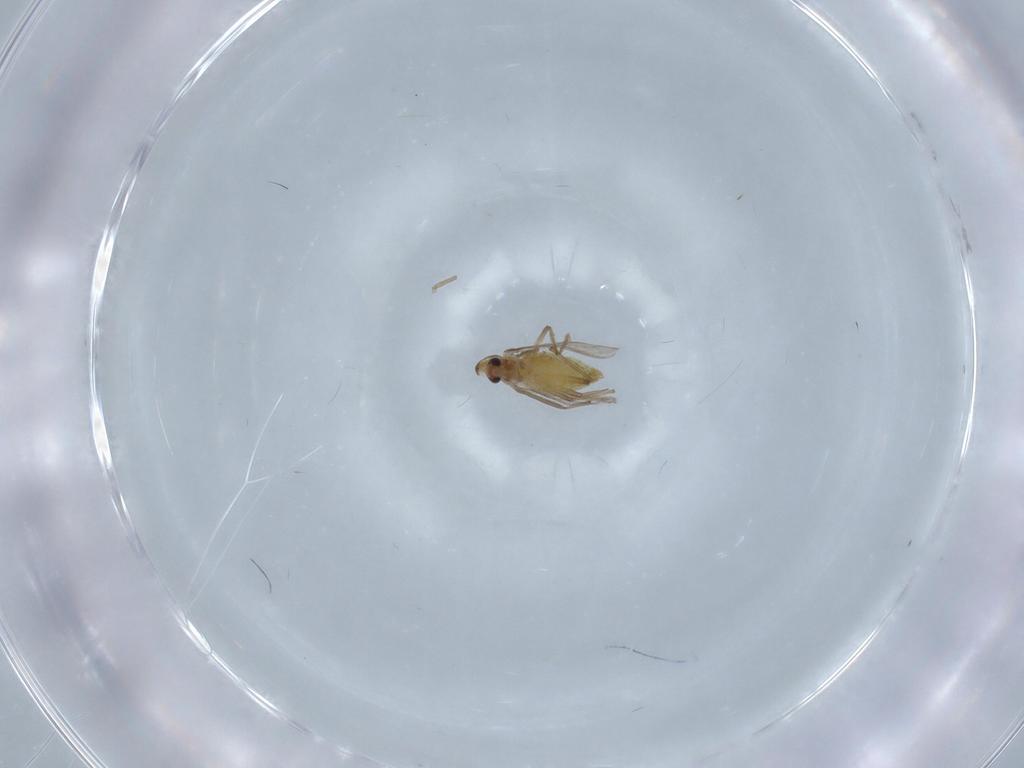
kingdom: Animalia
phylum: Arthropoda
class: Insecta
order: Diptera
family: Chironomidae
